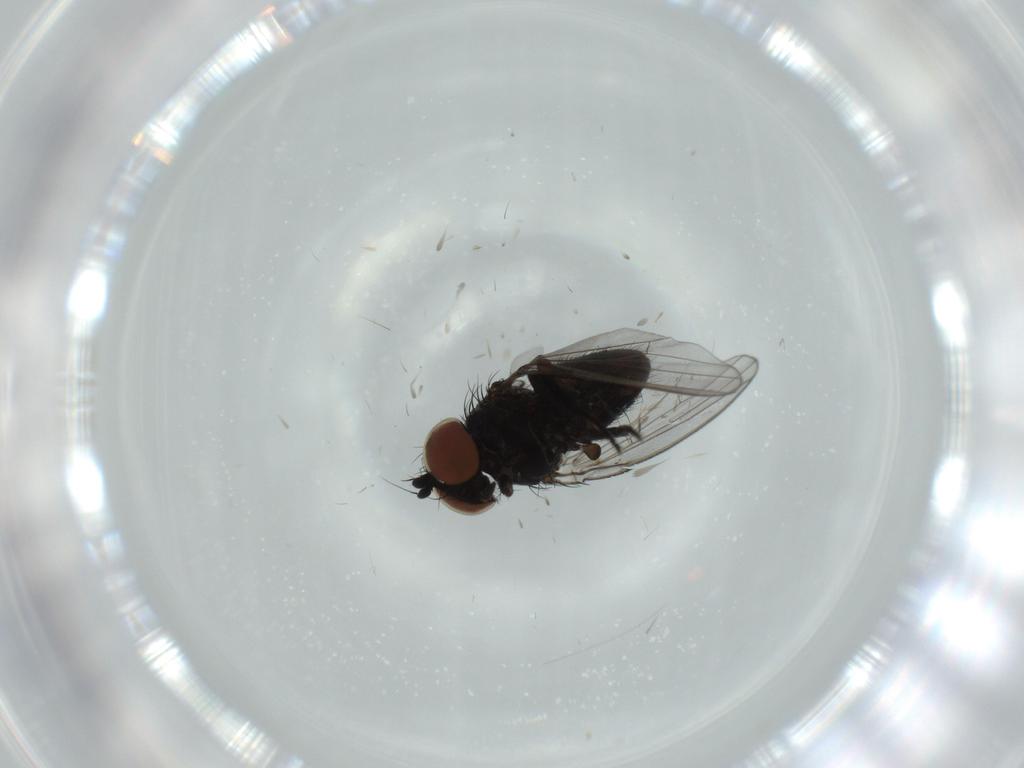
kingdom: Animalia
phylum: Arthropoda
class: Insecta
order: Diptera
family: Milichiidae
